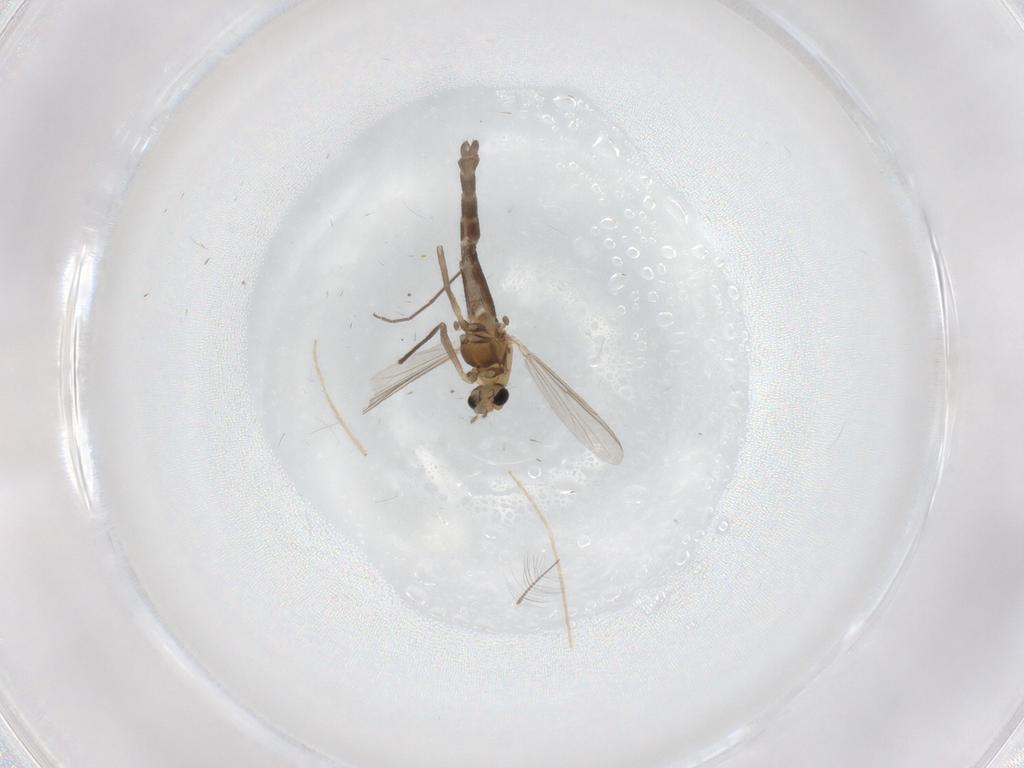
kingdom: Animalia
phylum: Arthropoda
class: Insecta
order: Diptera
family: Chironomidae
